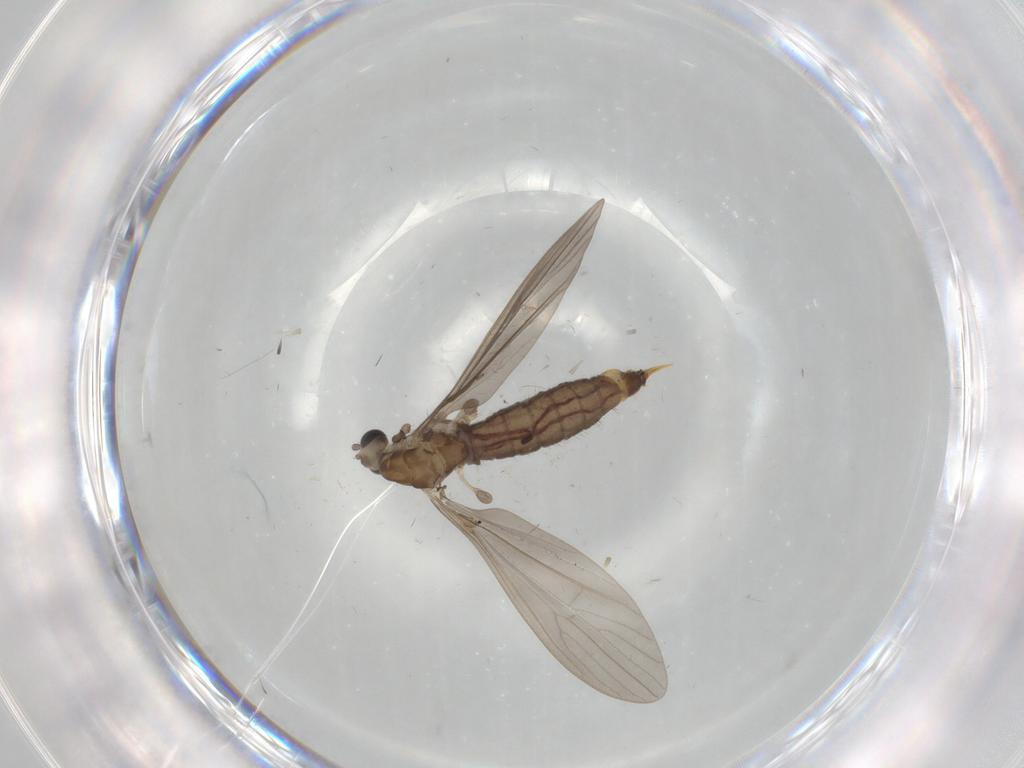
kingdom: Animalia
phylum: Arthropoda
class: Insecta
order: Diptera
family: Limoniidae
